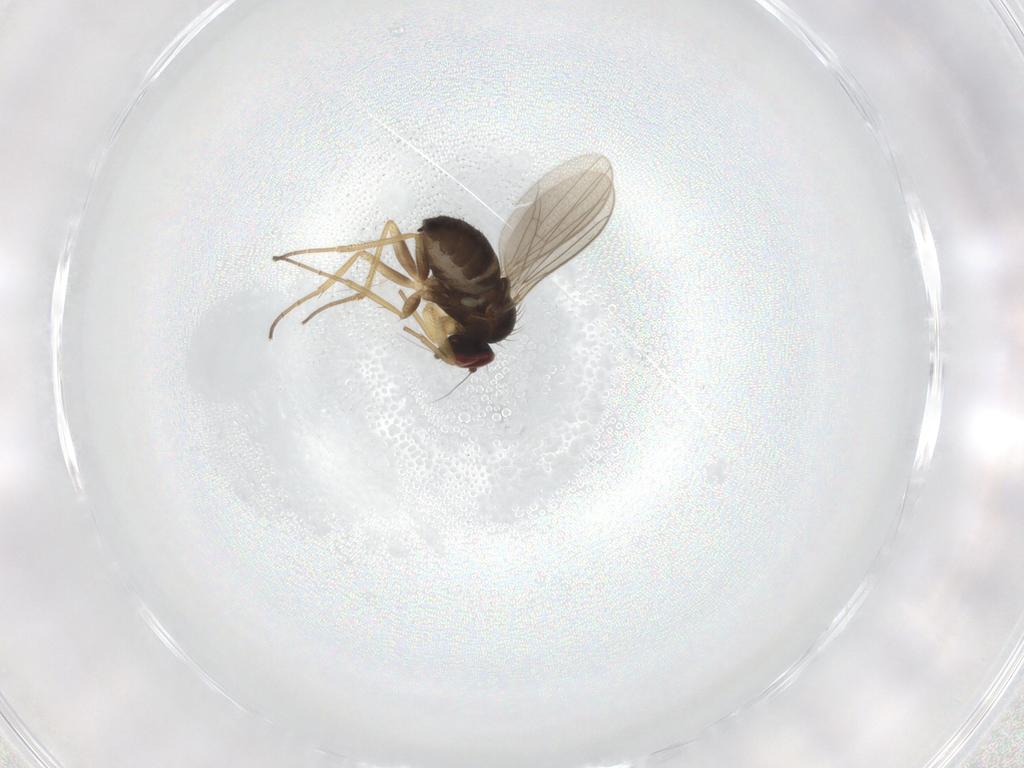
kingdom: Animalia
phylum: Arthropoda
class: Insecta
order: Diptera
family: Dolichopodidae
